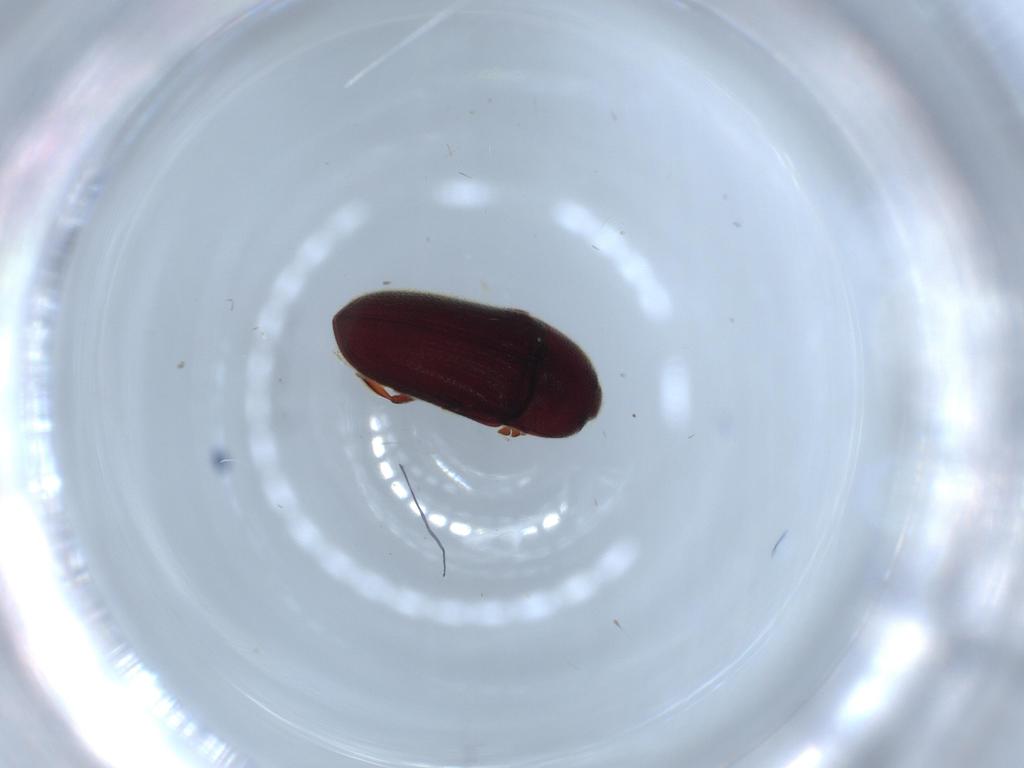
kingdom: Animalia
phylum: Arthropoda
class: Insecta
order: Coleoptera
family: Throscidae
